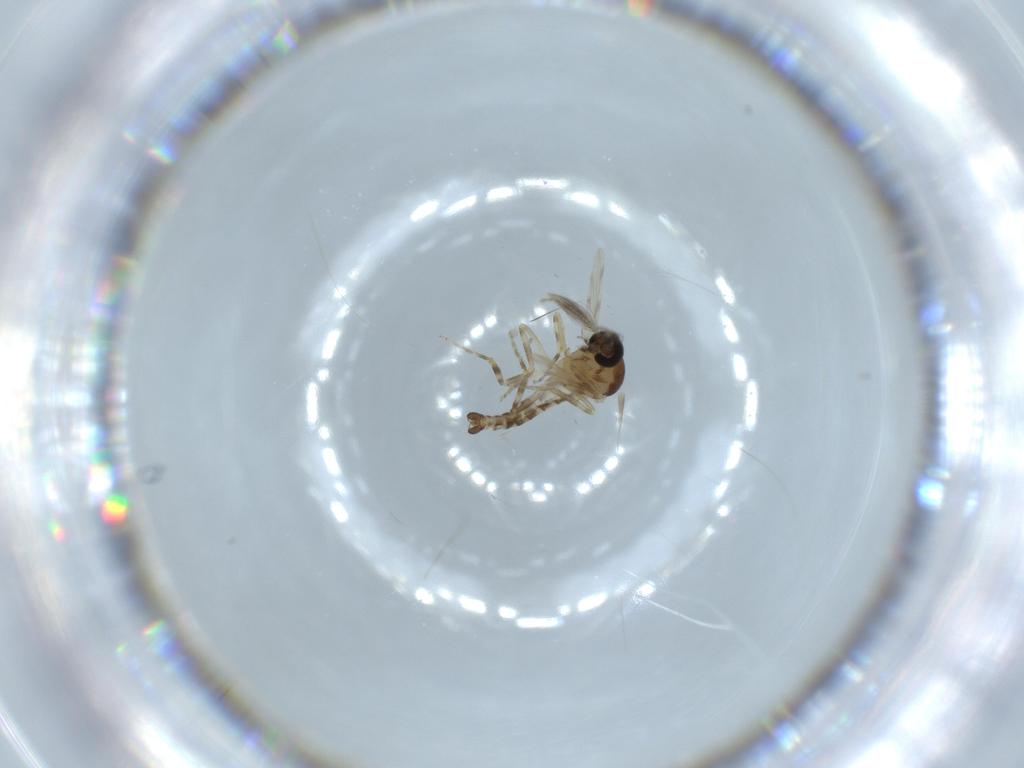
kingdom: Animalia
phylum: Arthropoda
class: Insecta
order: Diptera
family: Ceratopogonidae
